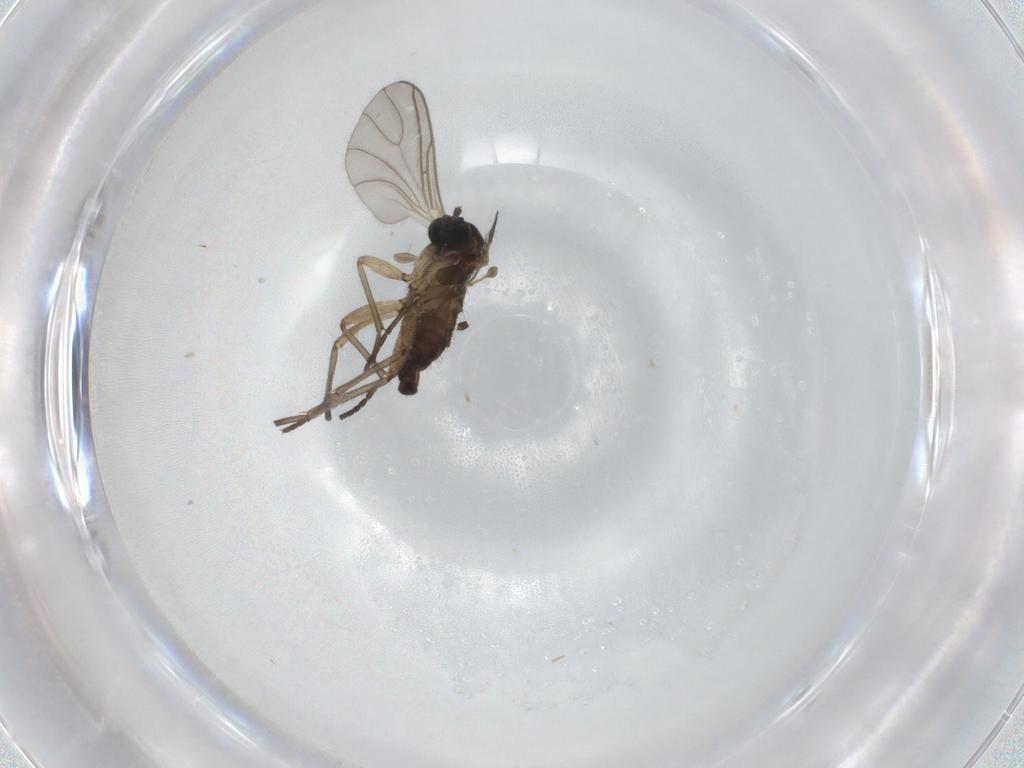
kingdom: Animalia
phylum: Arthropoda
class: Insecta
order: Diptera
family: Sciaridae
